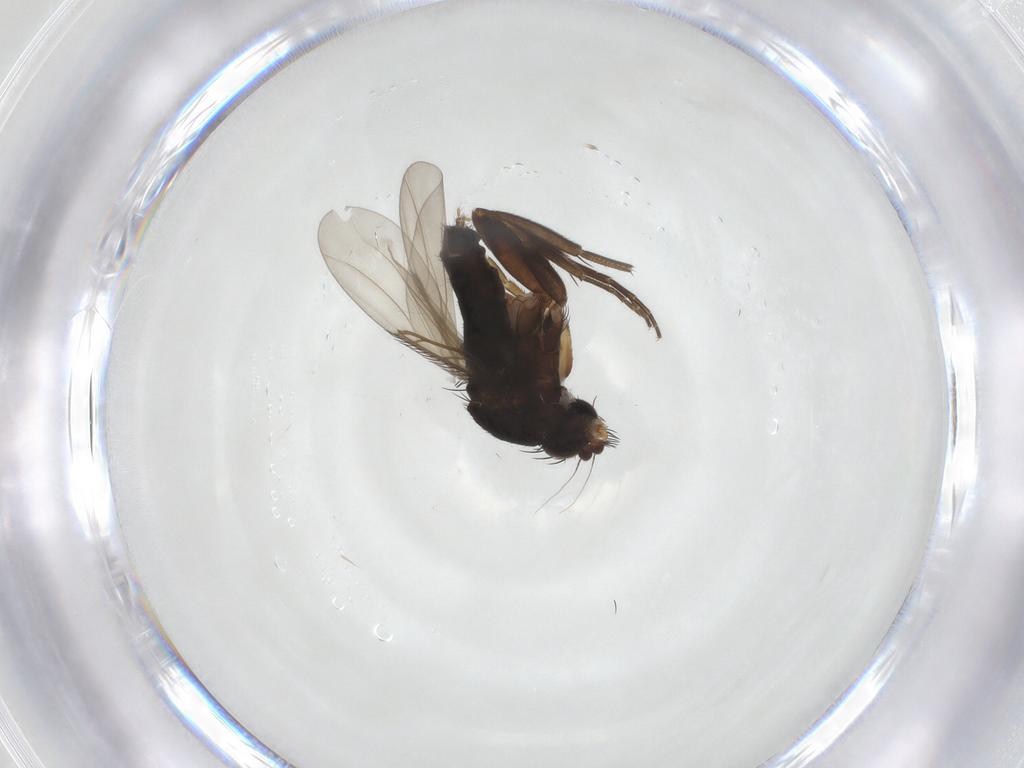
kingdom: Animalia
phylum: Arthropoda
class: Insecta
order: Diptera
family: Phoridae
